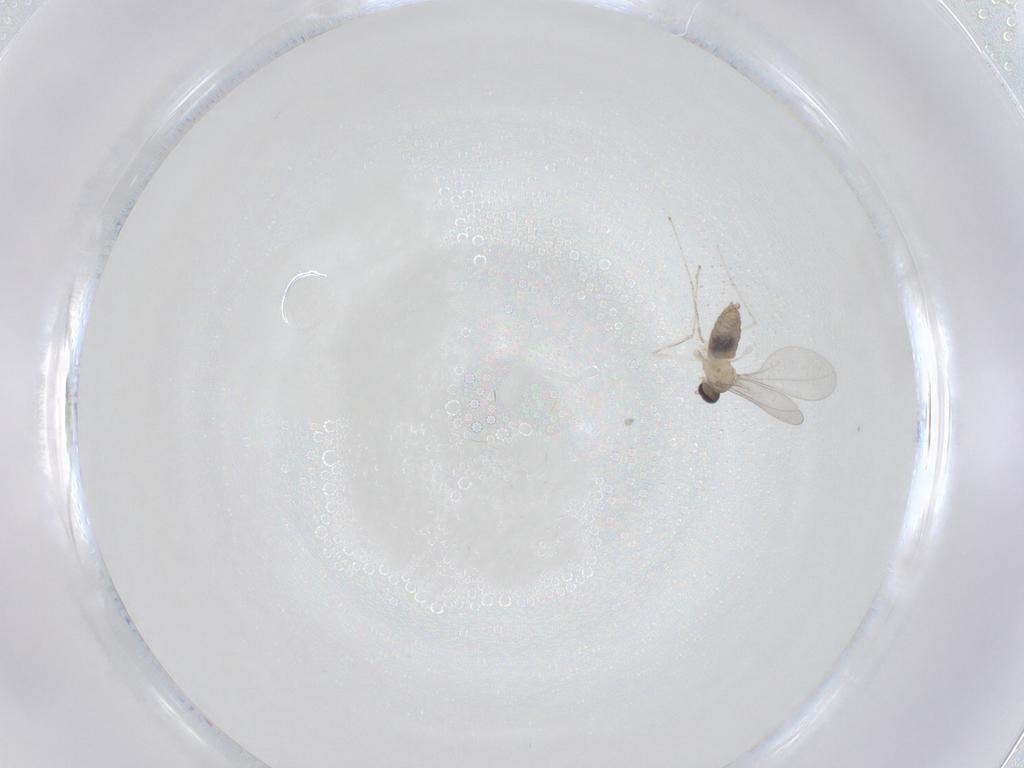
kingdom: Animalia
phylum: Arthropoda
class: Insecta
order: Diptera
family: Cecidomyiidae
